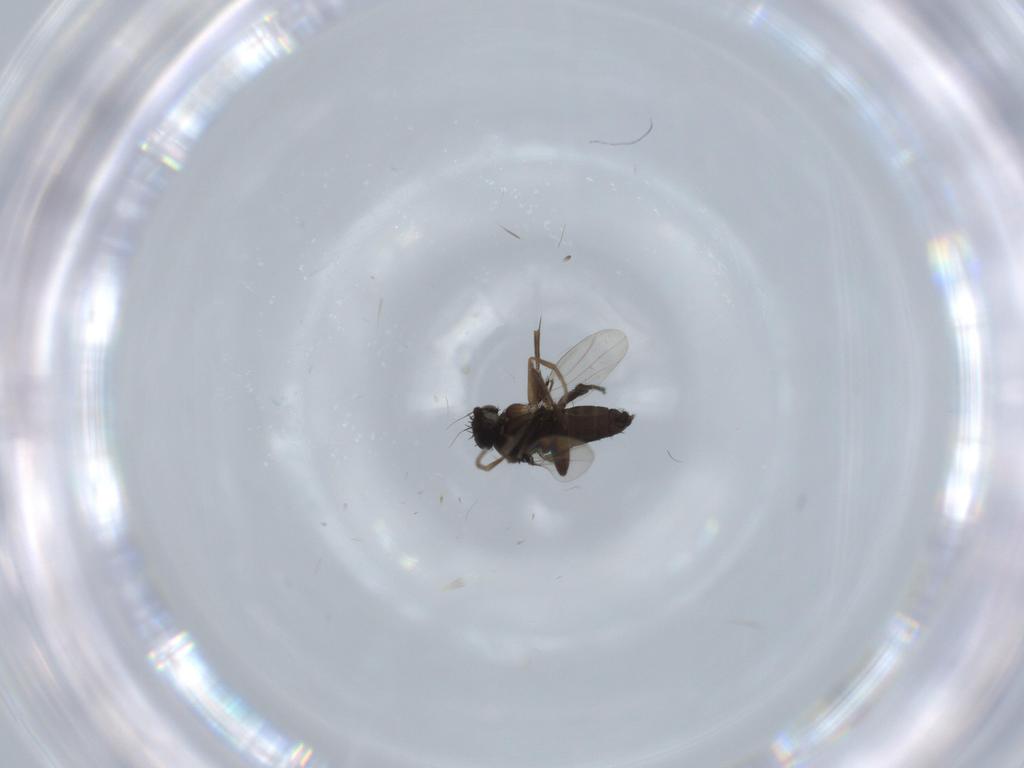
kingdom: Animalia
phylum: Arthropoda
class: Insecta
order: Diptera
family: Phoridae
